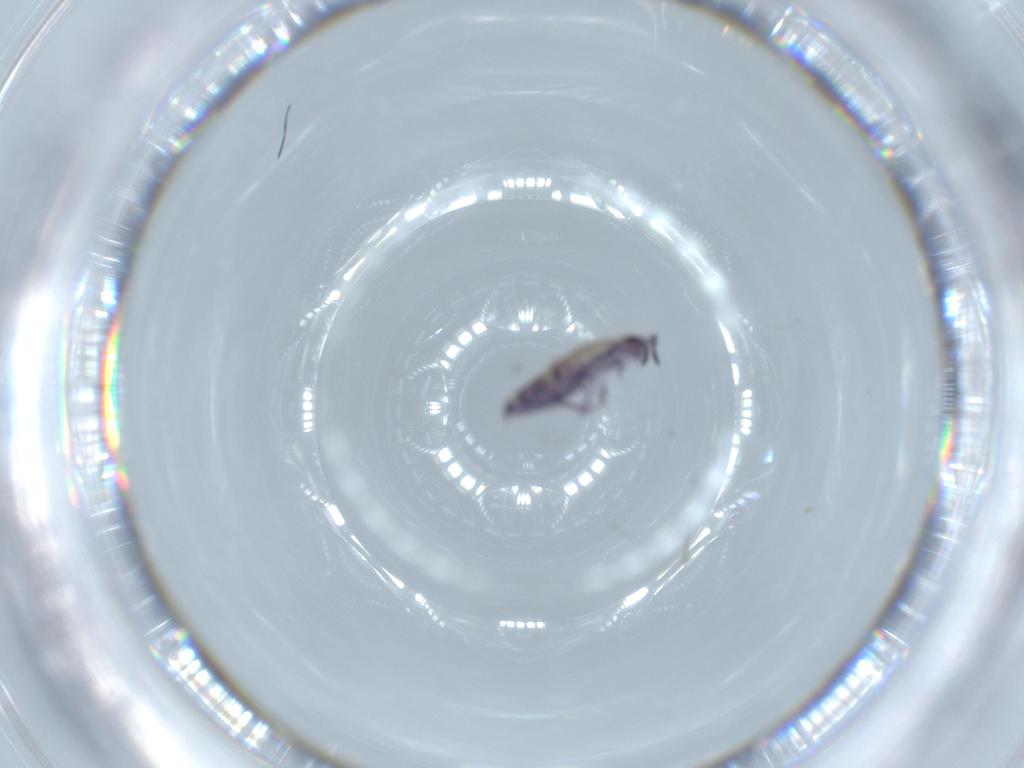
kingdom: Animalia
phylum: Arthropoda
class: Collembola
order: Entomobryomorpha
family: Entomobryidae
